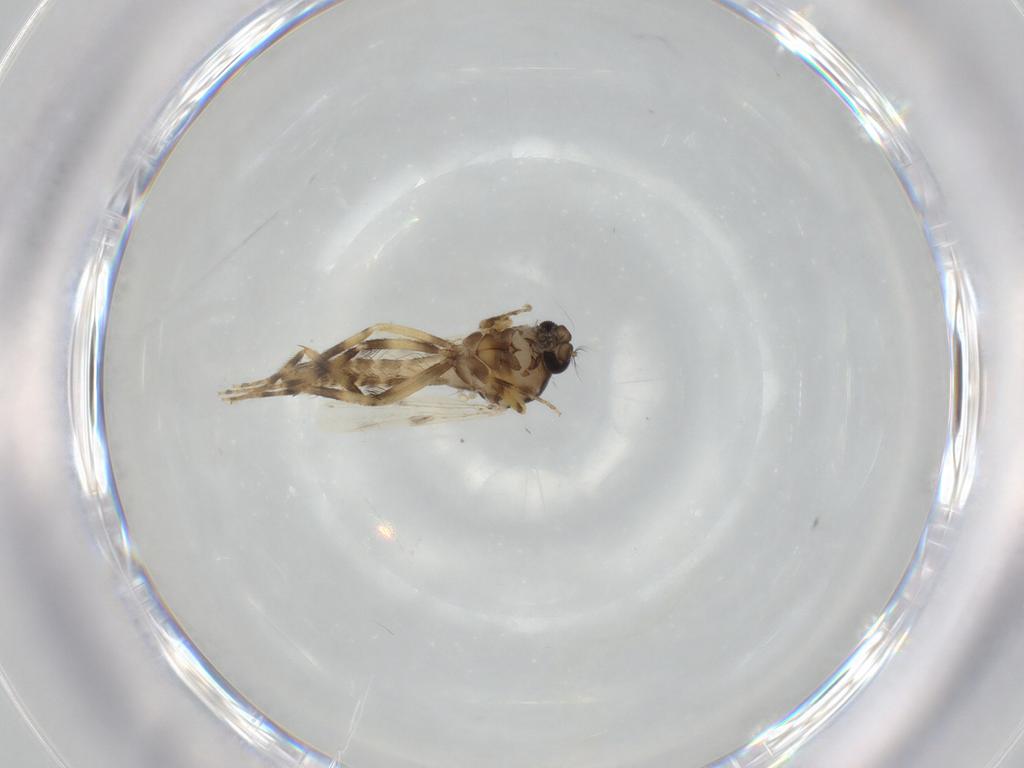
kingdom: Animalia
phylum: Arthropoda
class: Insecta
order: Diptera
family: Ceratopogonidae
